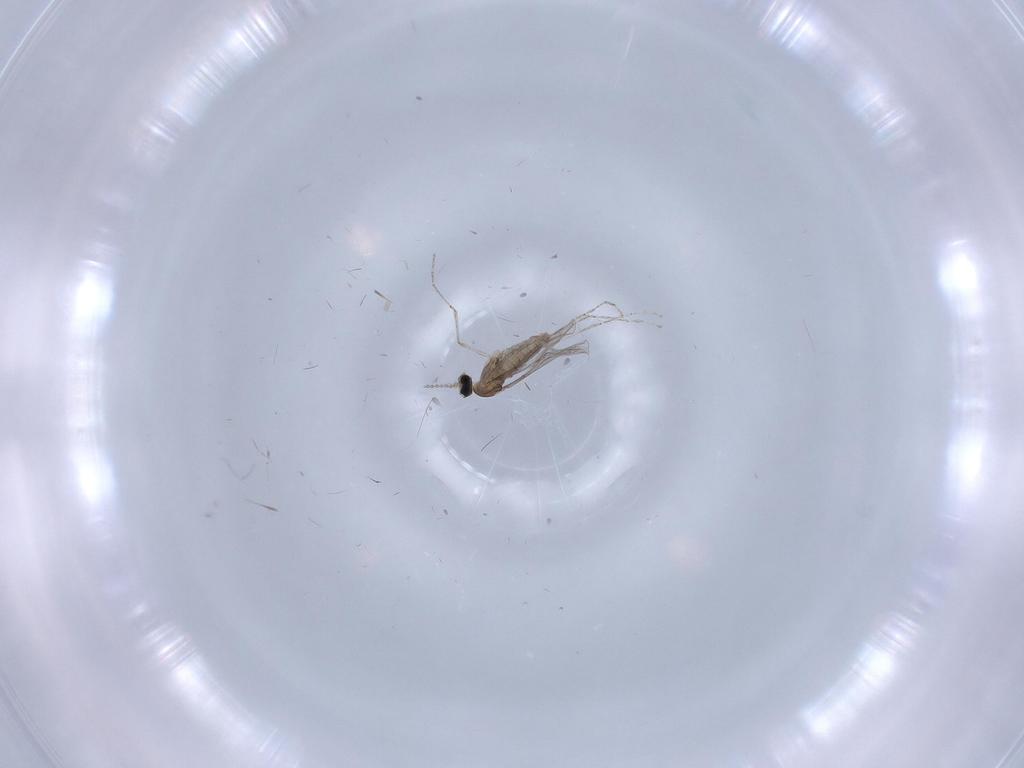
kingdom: Animalia
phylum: Arthropoda
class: Insecta
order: Diptera
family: Cecidomyiidae
